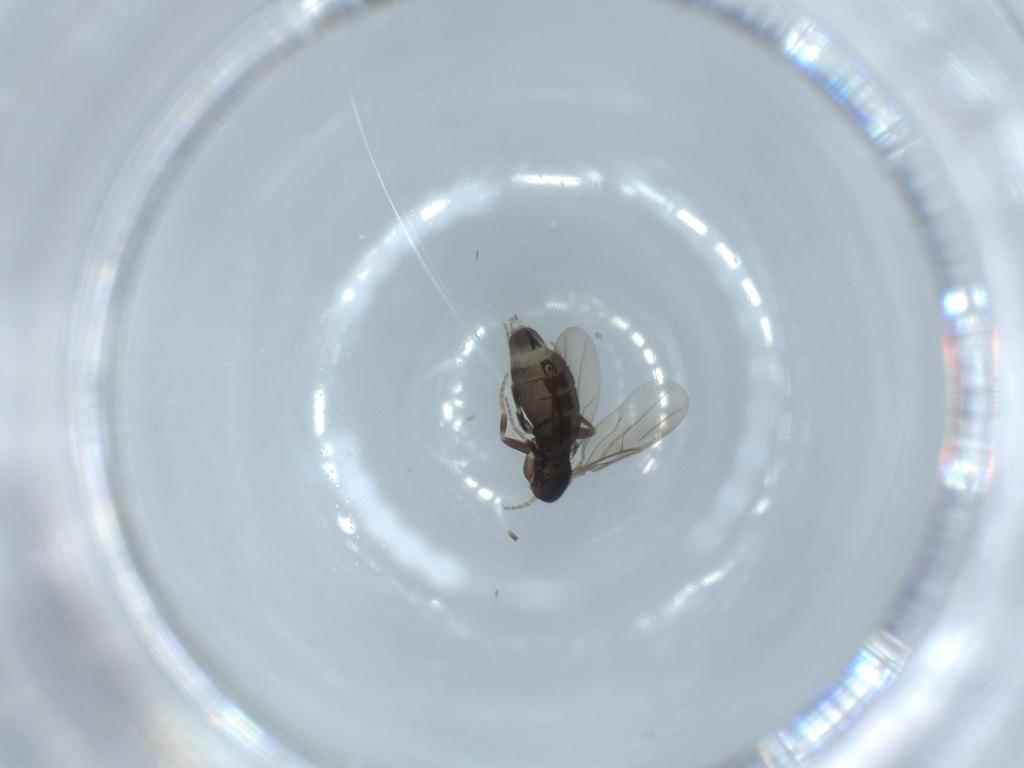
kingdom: Animalia
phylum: Arthropoda
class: Insecta
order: Diptera
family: Phoridae
